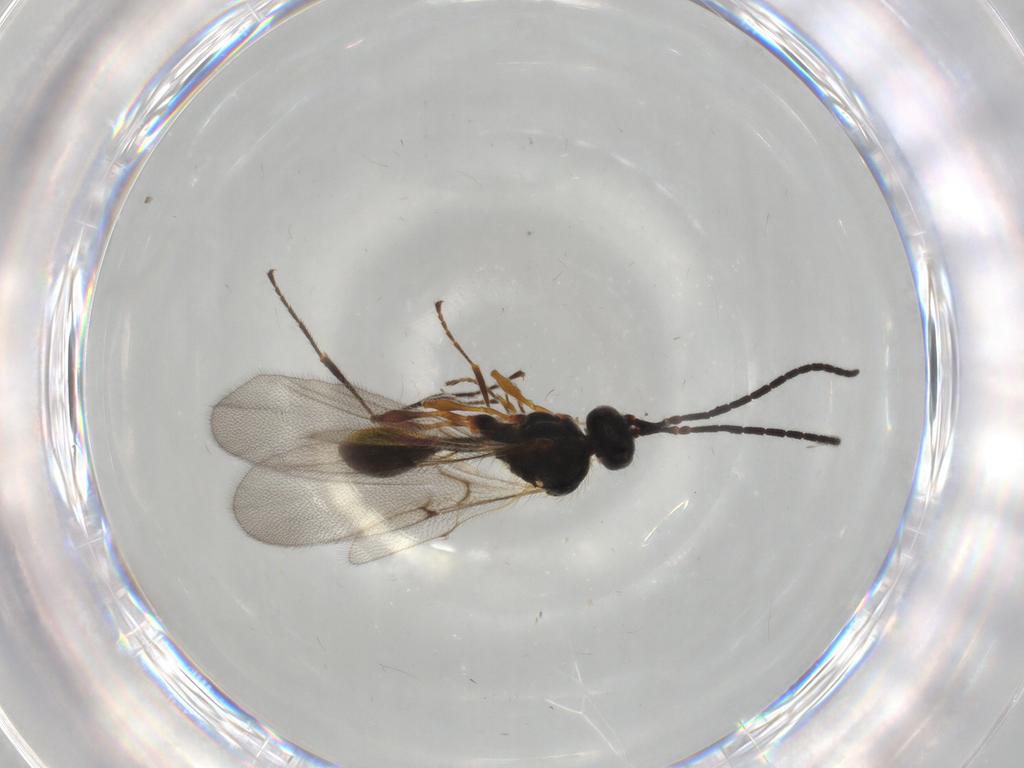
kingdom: Animalia
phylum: Arthropoda
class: Insecta
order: Hymenoptera
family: Diapriidae
